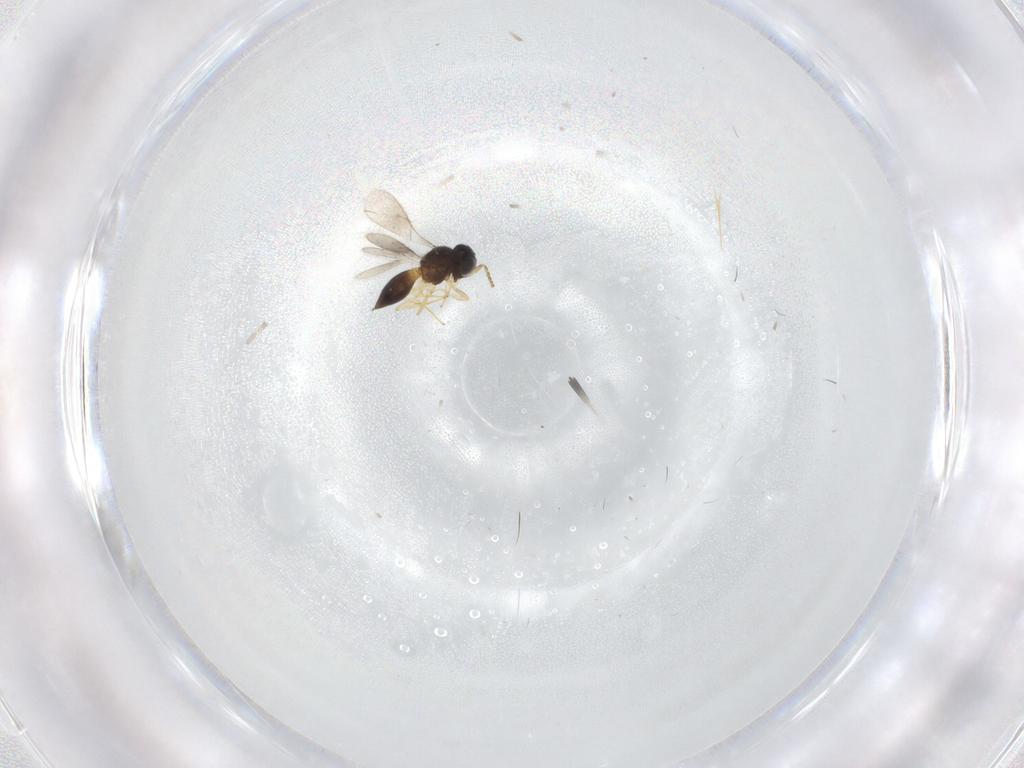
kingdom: Animalia
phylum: Arthropoda
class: Insecta
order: Hymenoptera
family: Scelionidae
